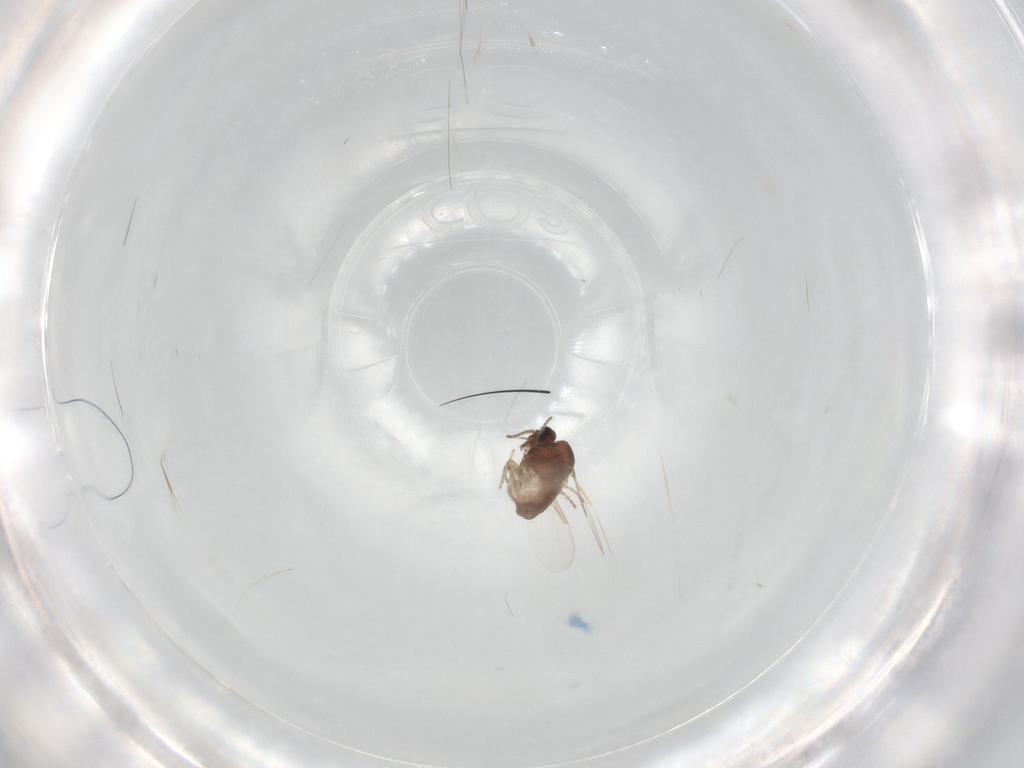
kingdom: Animalia
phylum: Arthropoda
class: Insecta
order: Diptera
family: Ceratopogonidae
